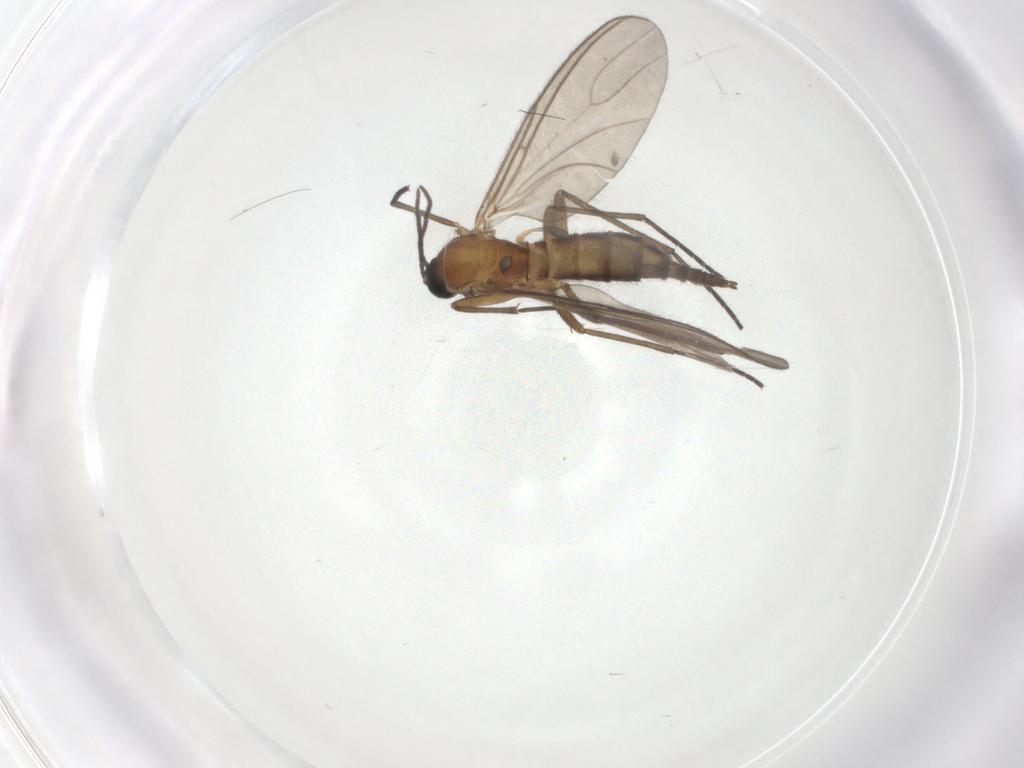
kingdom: Animalia
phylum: Arthropoda
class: Insecta
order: Diptera
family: Sciaridae
